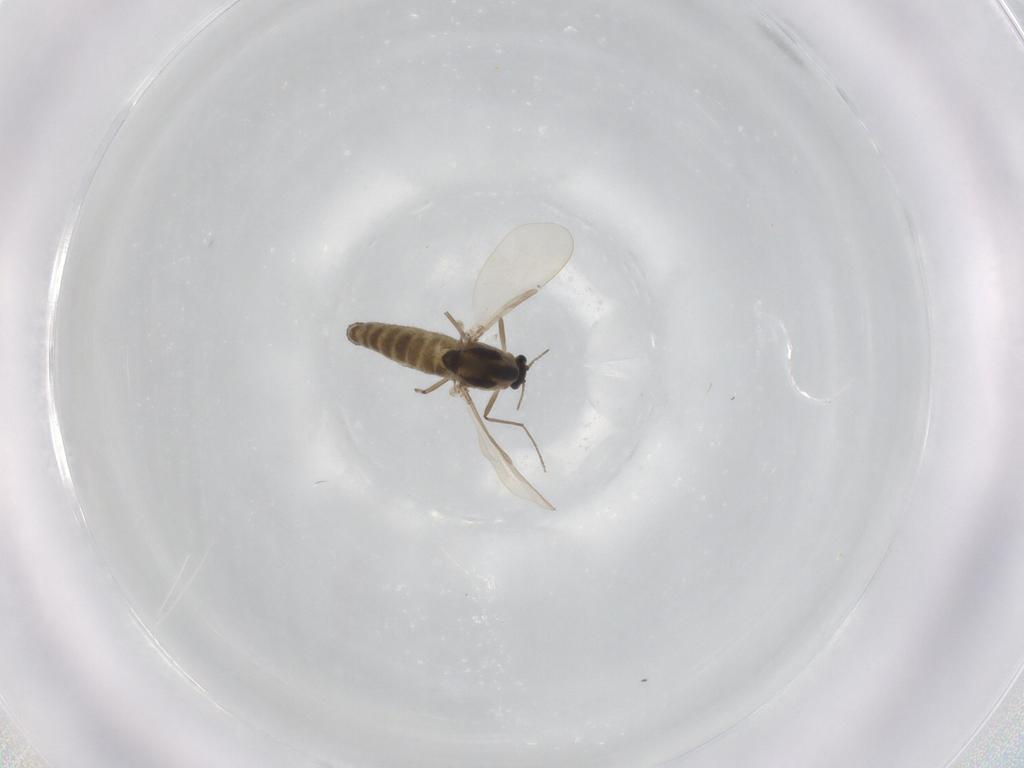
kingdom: Animalia
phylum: Arthropoda
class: Insecta
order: Diptera
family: Chironomidae
